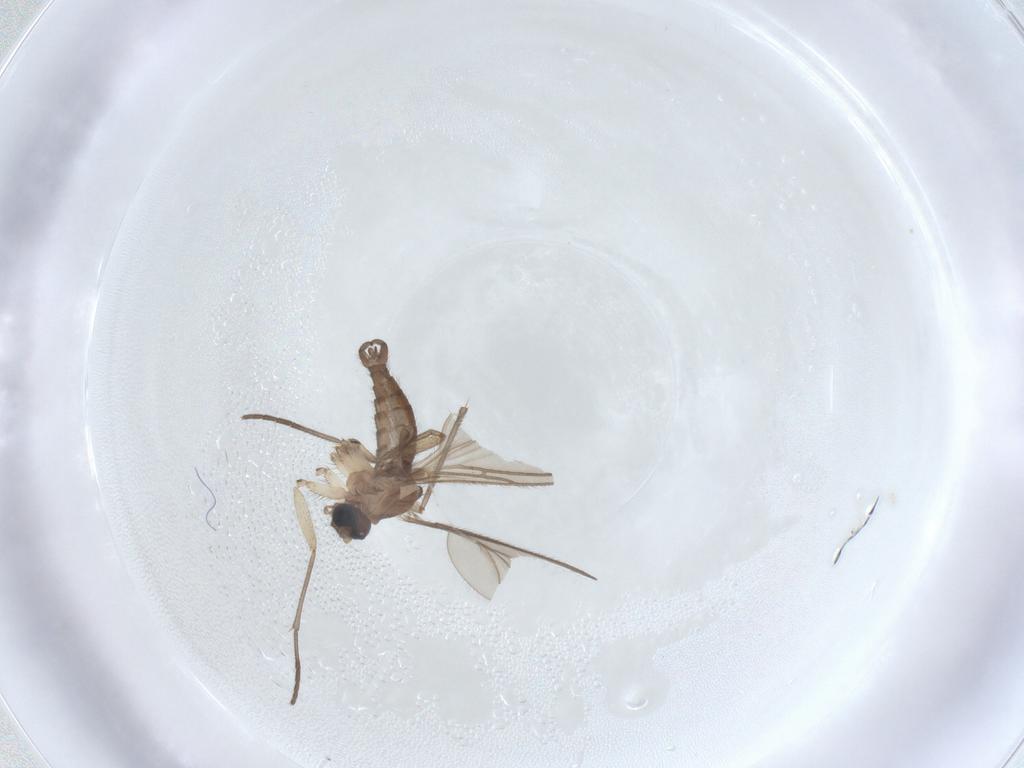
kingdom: Animalia
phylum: Arthropoda
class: Insecta
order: Diptera
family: Sciaridae
